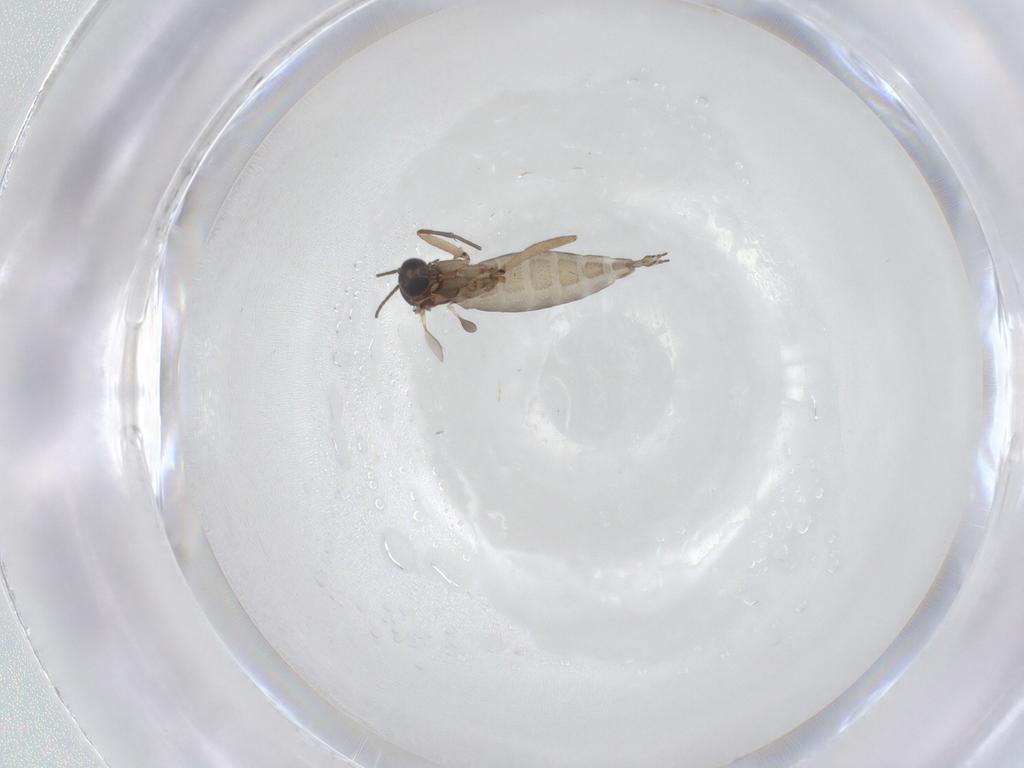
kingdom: Animalia
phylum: Arthropoda
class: Insecta
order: Diptera
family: Sciaridae
